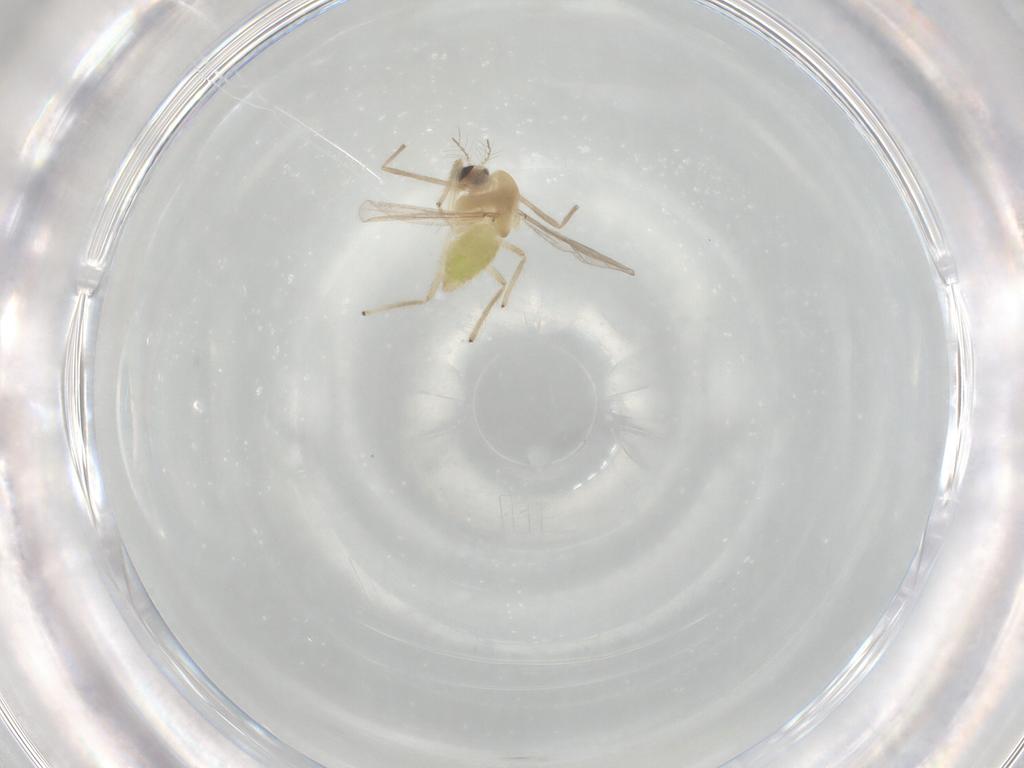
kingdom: Animalia
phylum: Arthropoda
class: Insecta
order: Diptera
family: Chironomidae
